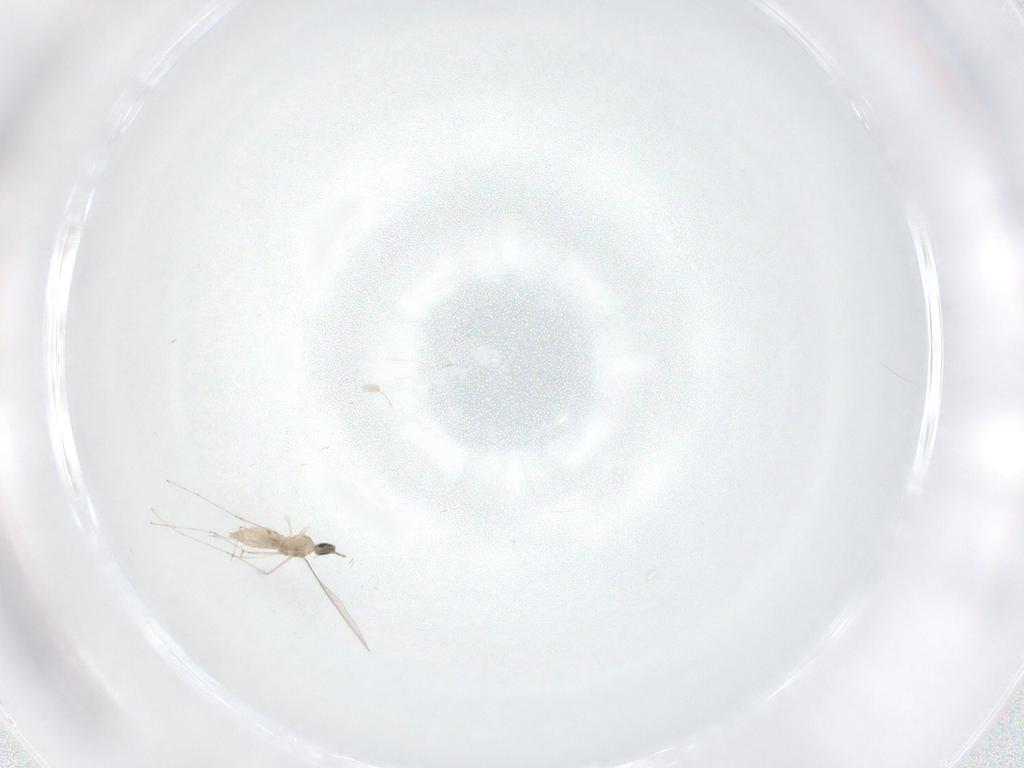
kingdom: Animalia
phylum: Arthropoda
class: Insecta
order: Diptera
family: Cecidomyiidae
